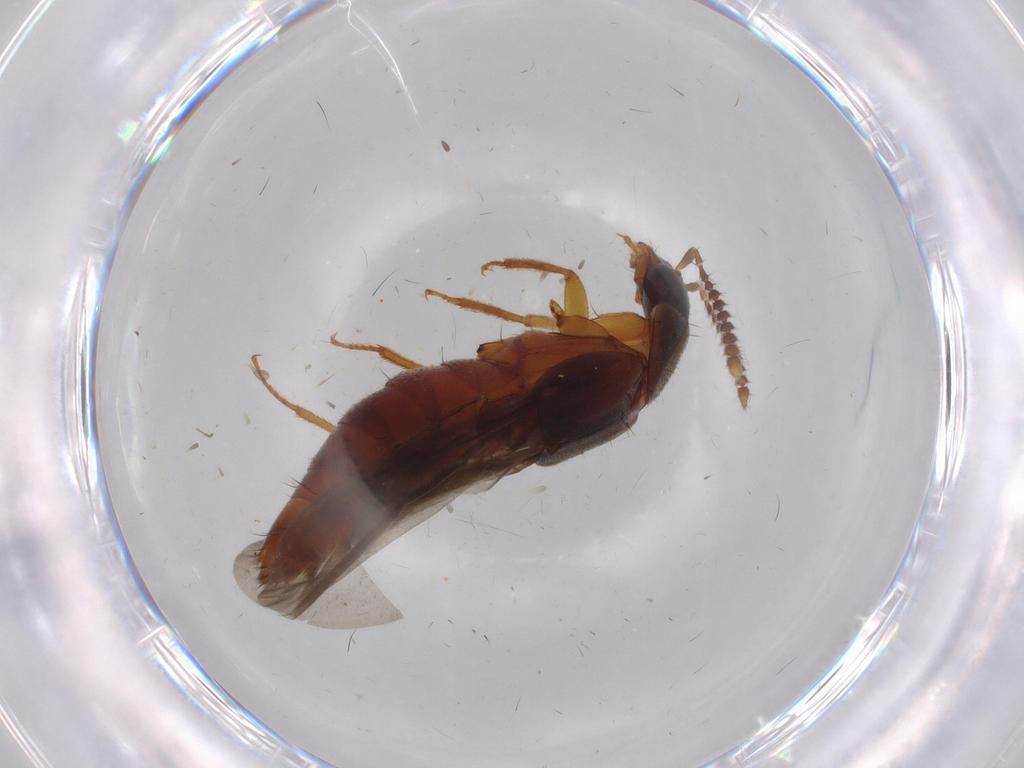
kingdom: Animalia
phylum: Arthropoda
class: Insecta
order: Coleoptera
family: Staphylinidae
